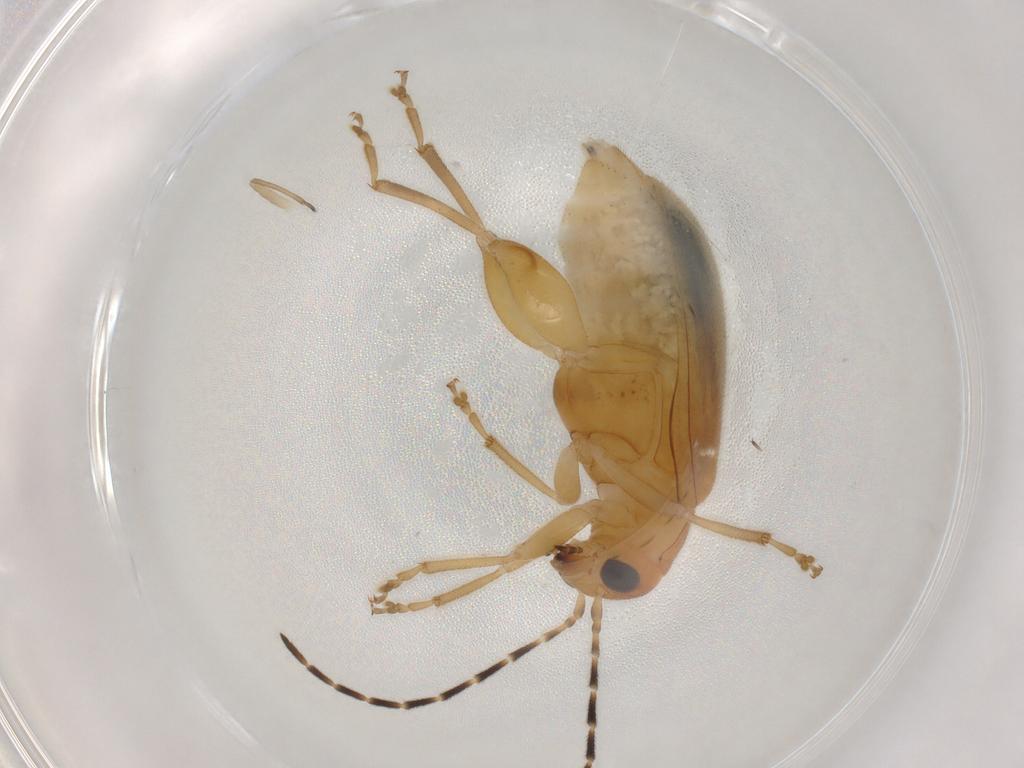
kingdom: Animalia
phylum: Arthropoda
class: Insecta
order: Coleoptera
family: Chrysomelidae
